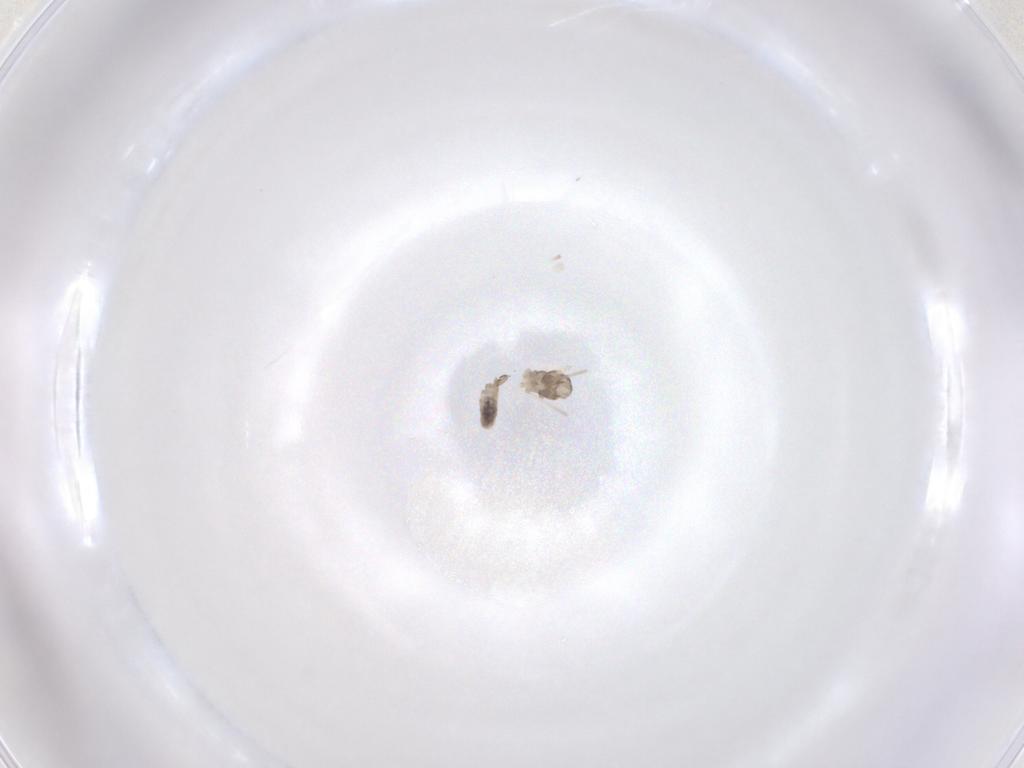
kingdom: Animalia
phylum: Arthropoda
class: Insecta
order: Diptera
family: Cecidomyiidae
